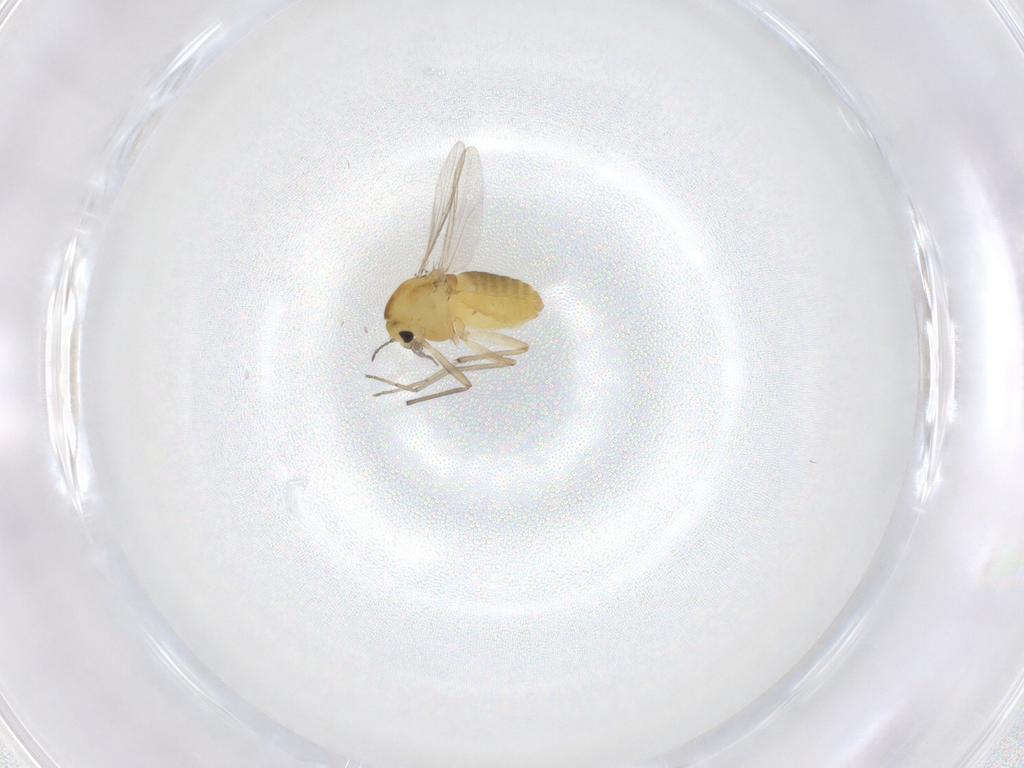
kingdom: Animalia
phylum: Arthropoda
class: Insecta
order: Diptera
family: Chironomidae
